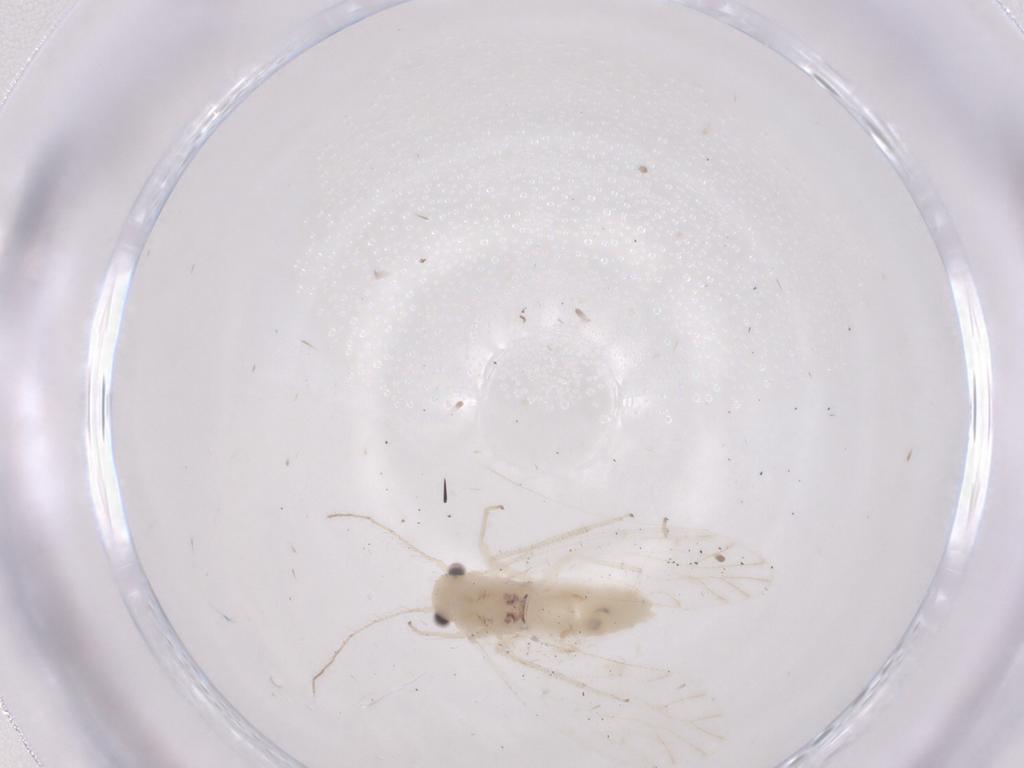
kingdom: Animalia
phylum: Arthropoda
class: Insecta
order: Psocodea
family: Trichopsocidae
